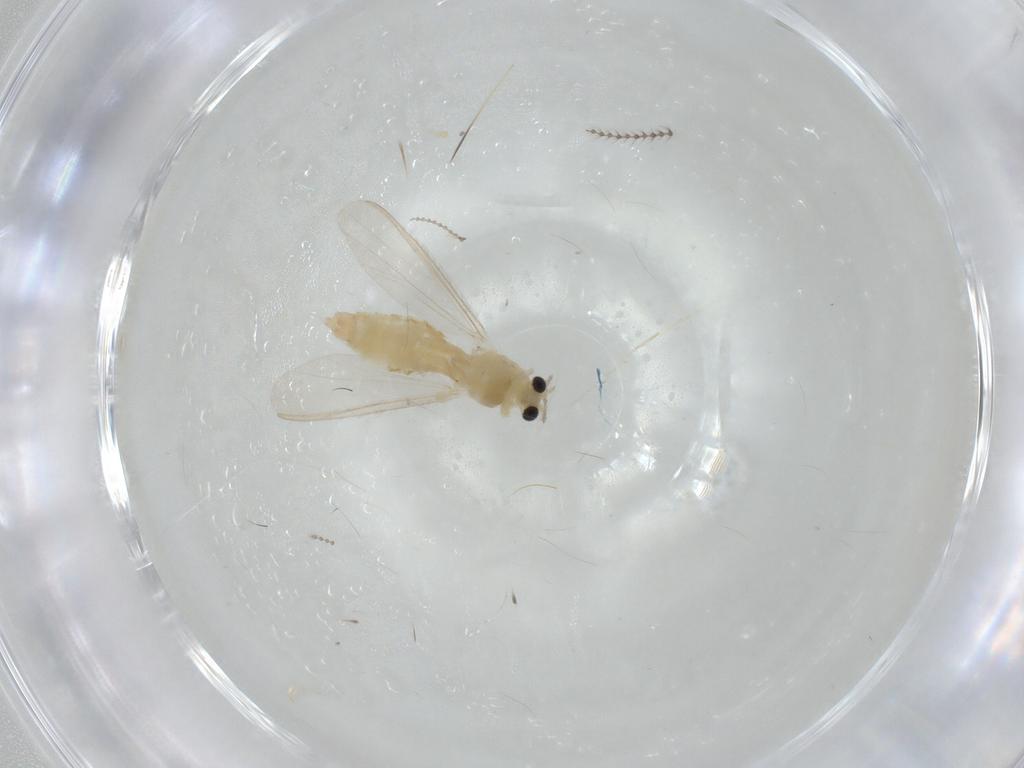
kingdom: Animalia
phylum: Arthropoda
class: Insecta
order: Diptera
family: Chironomidae
